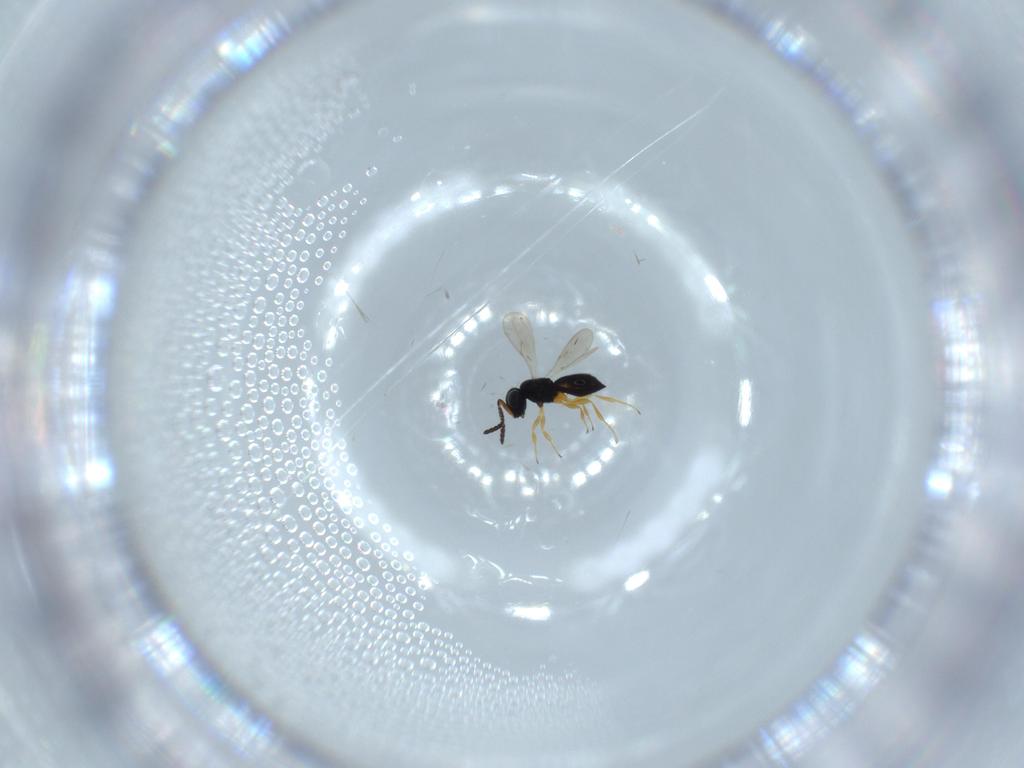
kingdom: Animalia
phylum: Arthropoda
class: Insecta
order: Hymenoptera
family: Scelionidae
